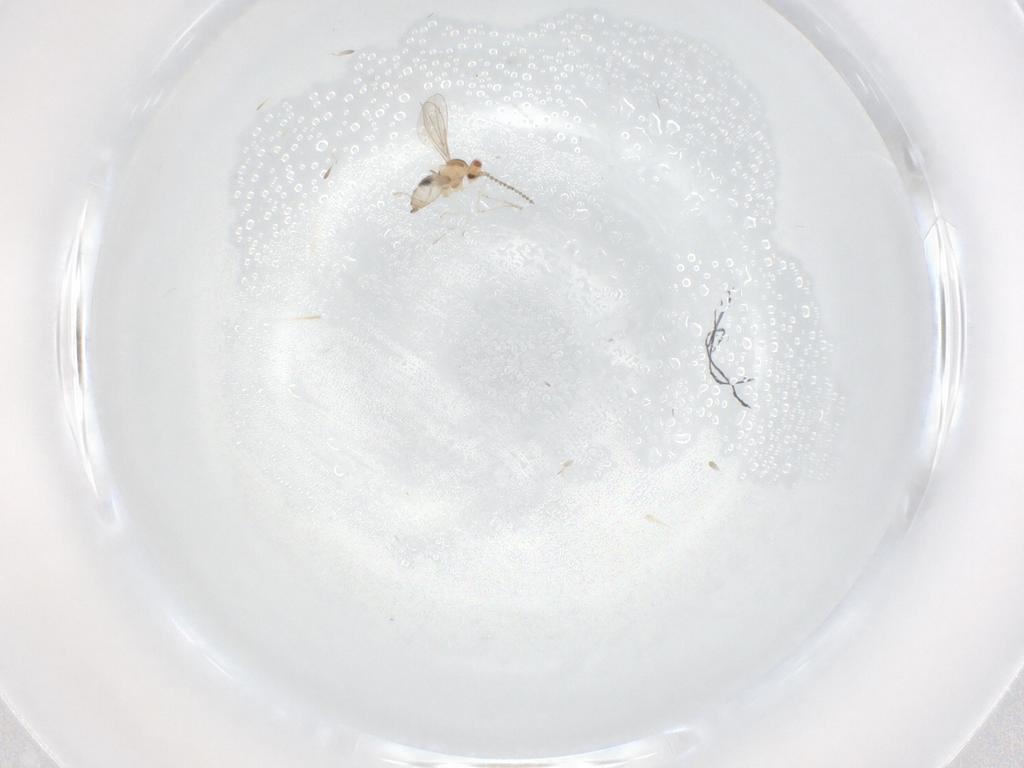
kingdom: Animalia
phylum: Arthropoda
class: Insecta
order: Diptera
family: Cecidomyiidae
